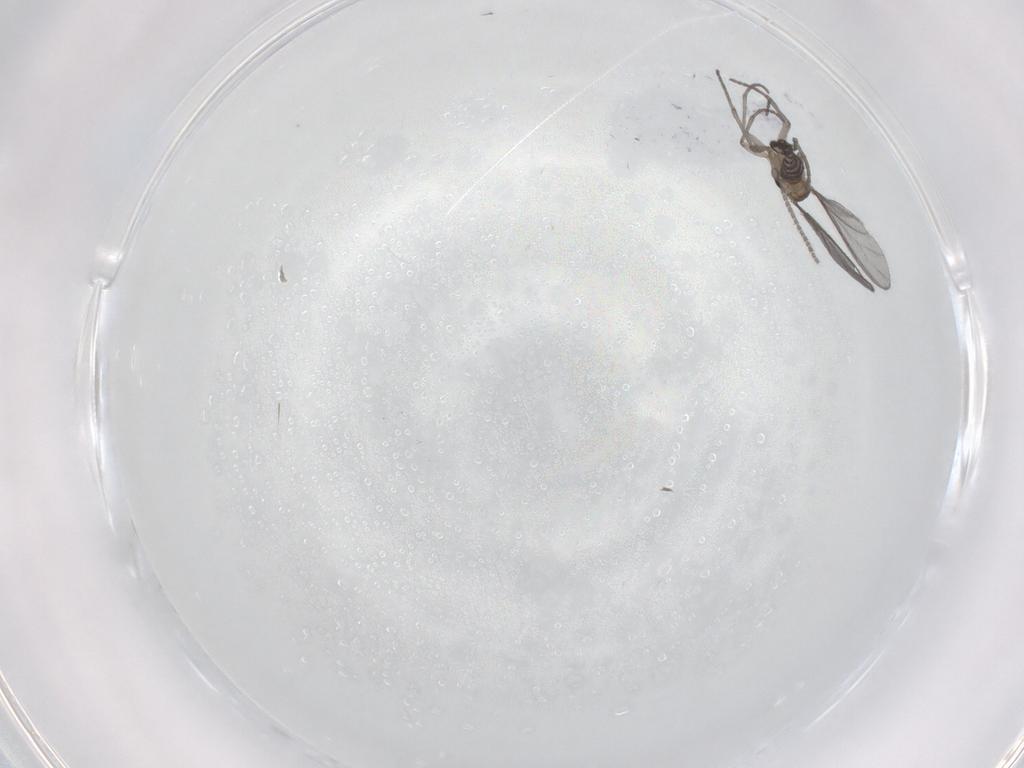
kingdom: Animalia
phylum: Arthropoda
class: Insecta
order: Diptera
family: Sciaridae
